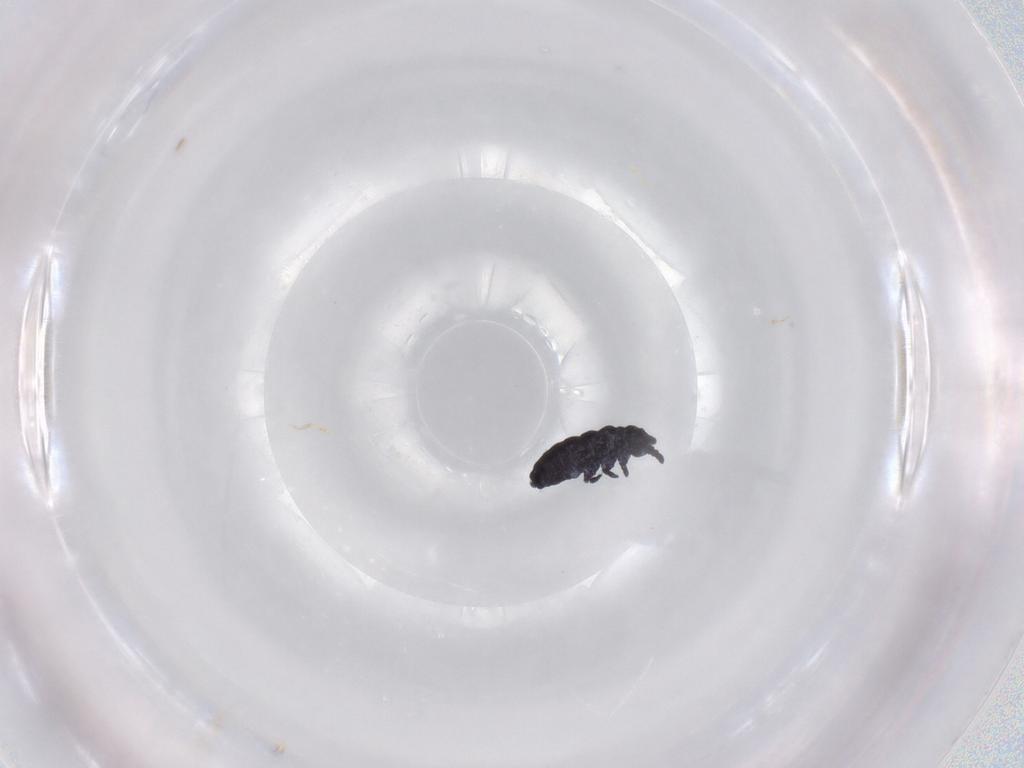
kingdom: Animalia
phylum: Arthropoda
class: Collembola
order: Poduromorpha
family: Neanuridae
